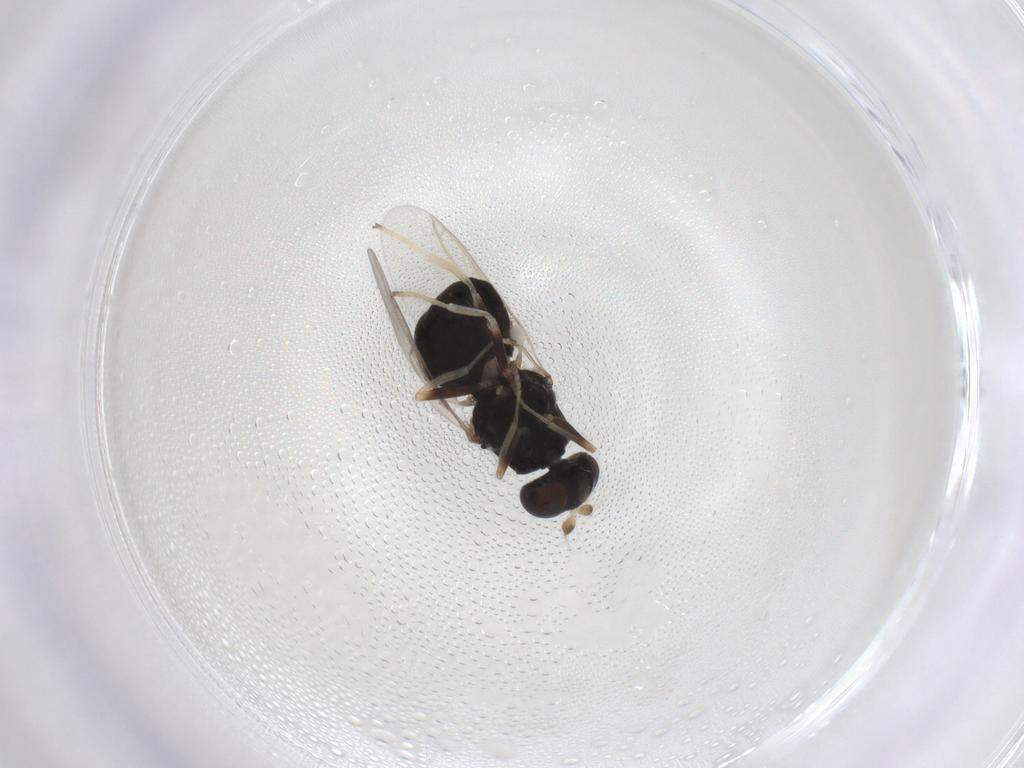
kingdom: Animalia
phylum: Arthropoda
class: Insecta
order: Diptera
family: Stratiomyidae
